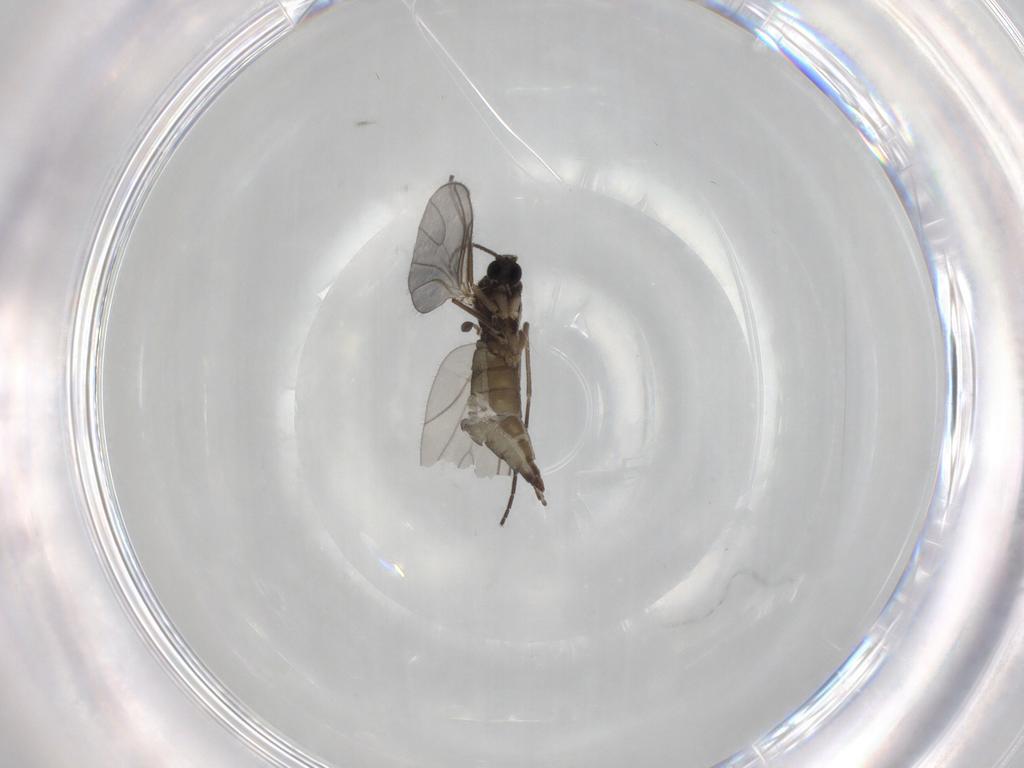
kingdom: Animalia
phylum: Arthropoda
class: Insecta
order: Diptera
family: Sciaridae
